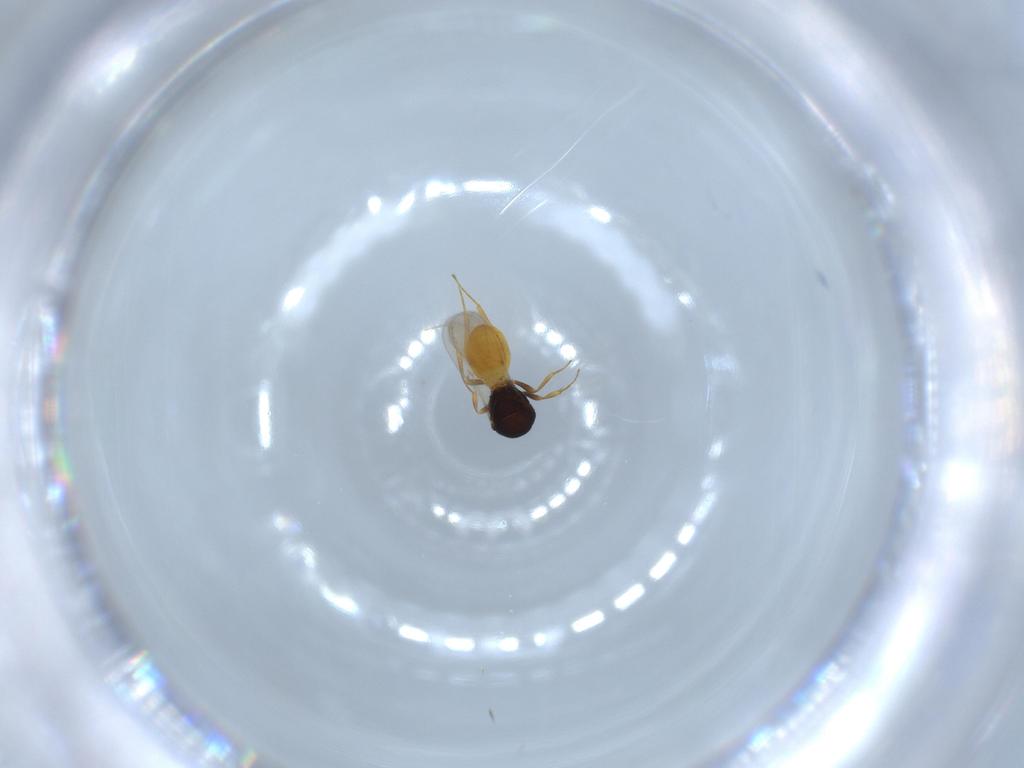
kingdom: Animalia
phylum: Arthropoda
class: Insecta
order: Hymenoptera
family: Scelionidae
